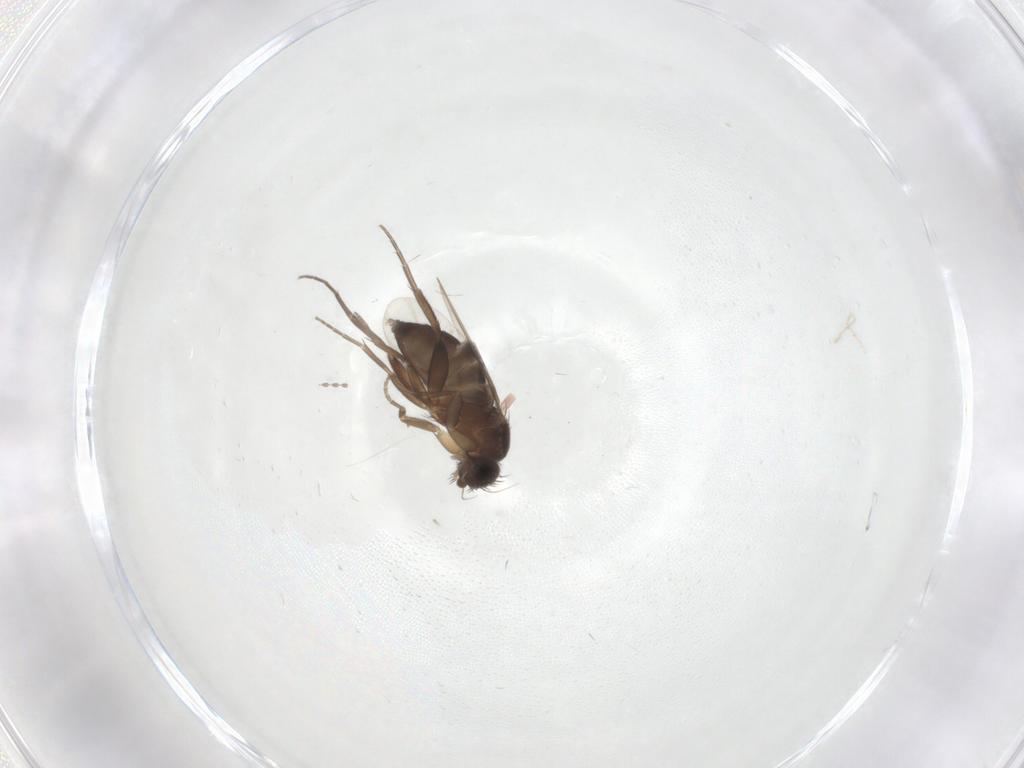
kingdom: Animalia
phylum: Arthropoda
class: Insecta
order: Diptera
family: Phoridae
